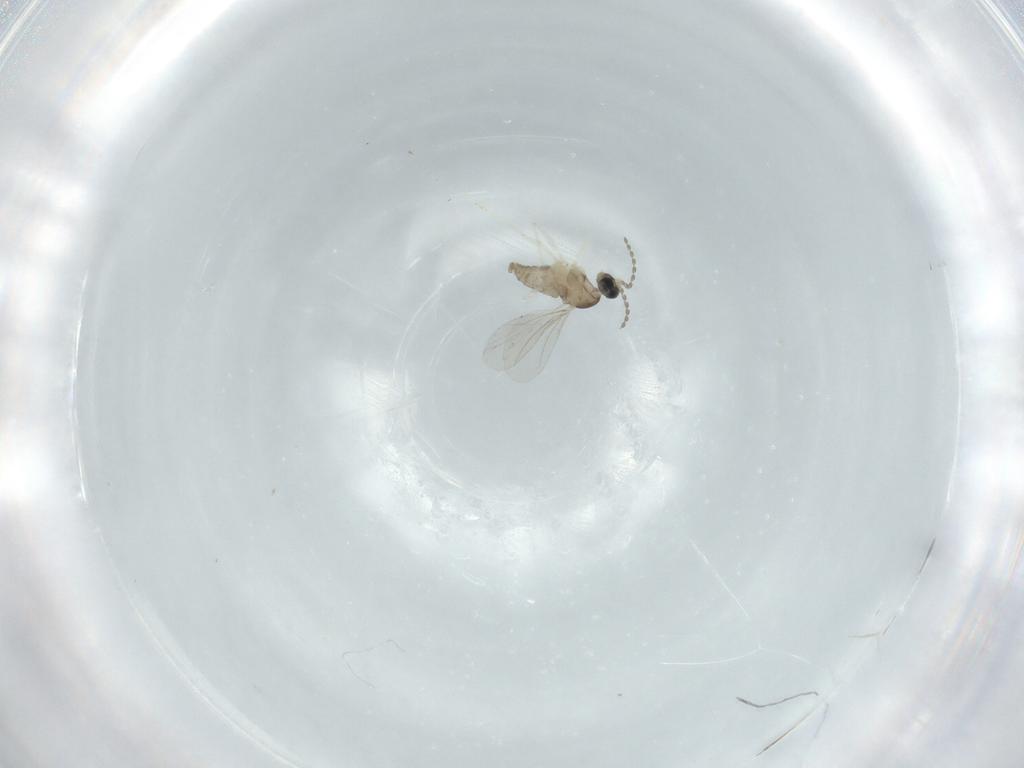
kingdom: Animalia
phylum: Arthropoda
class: Insecta
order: Diptera
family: Cecidomyiidae
